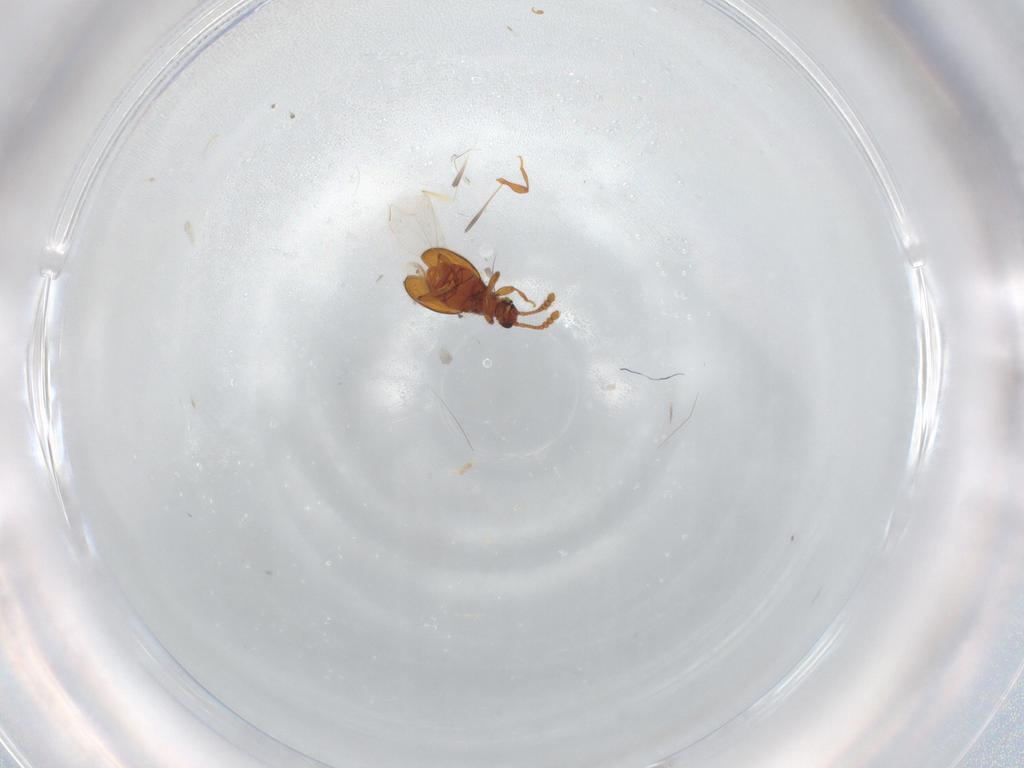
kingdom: Animalia
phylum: Arthropoda
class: Insecta
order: Coleoptera
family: Staphylinidae
